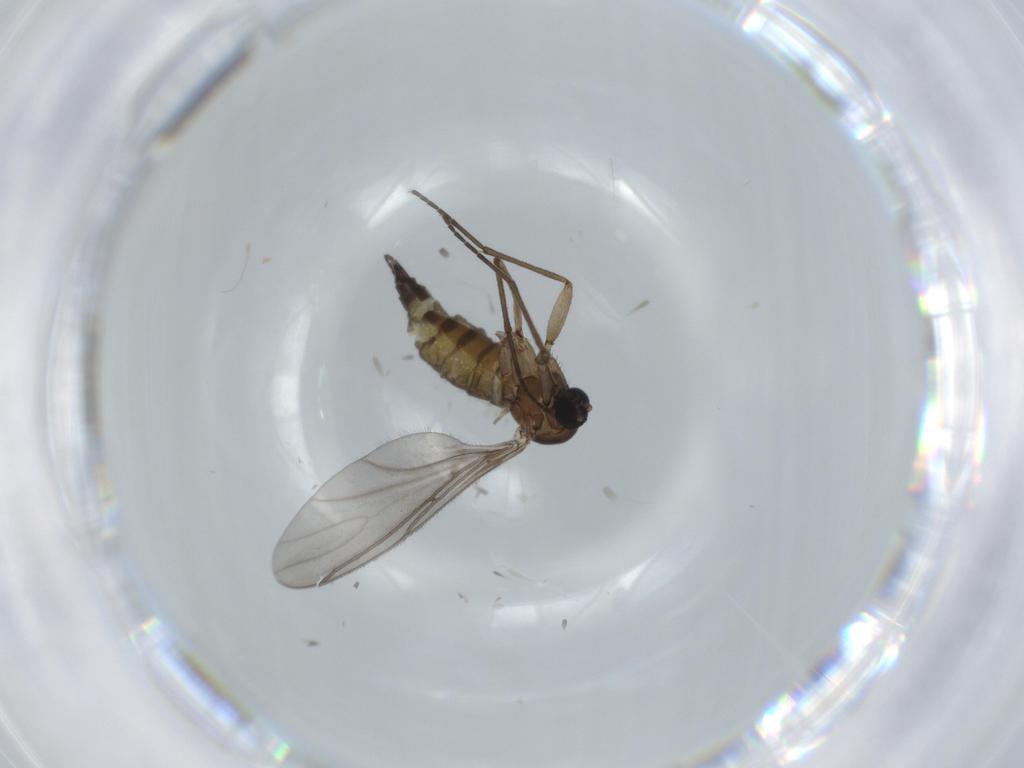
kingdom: Animalia
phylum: Arthropoda
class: Insecta
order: Diptera
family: Sciaridae
